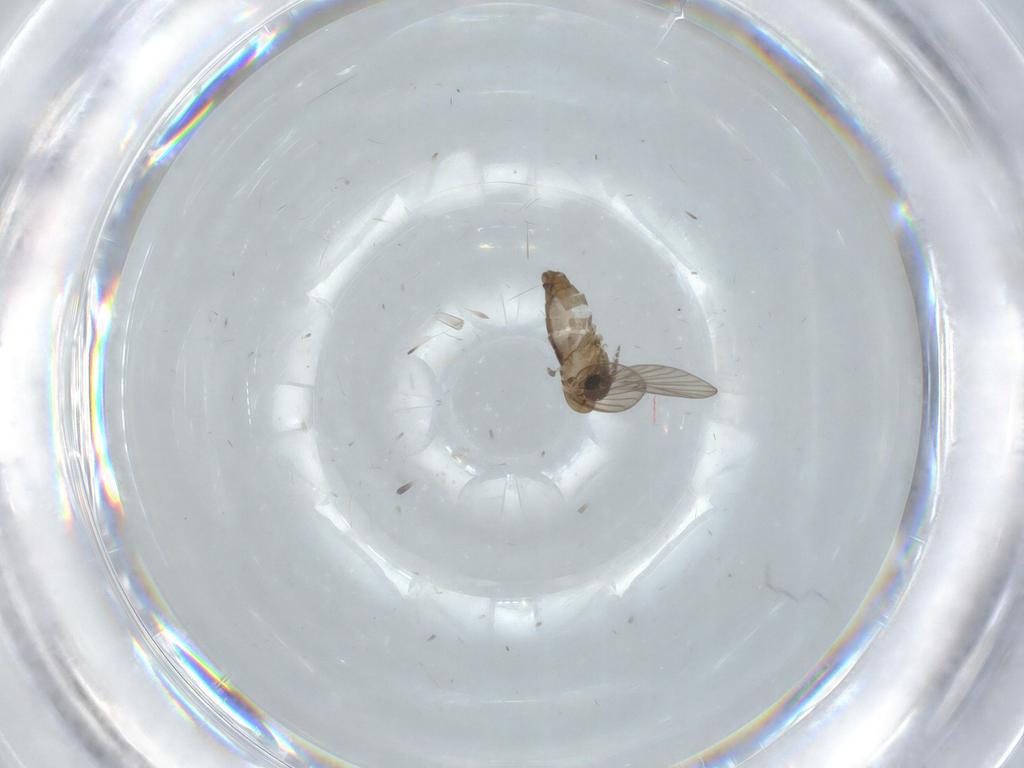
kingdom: Animalia
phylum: Arthropoda
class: Insecta
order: Diptera
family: Psychodidae
